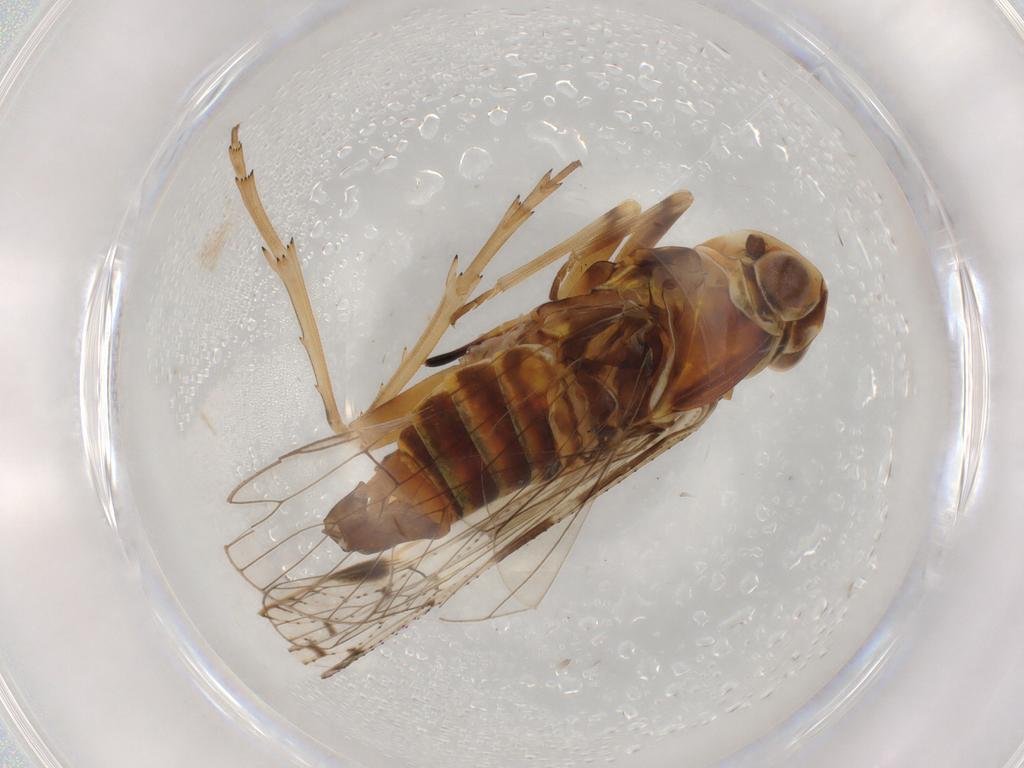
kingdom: Animalia
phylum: Arthropoda
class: Insecta
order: Hemiptera
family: Cixiidae
